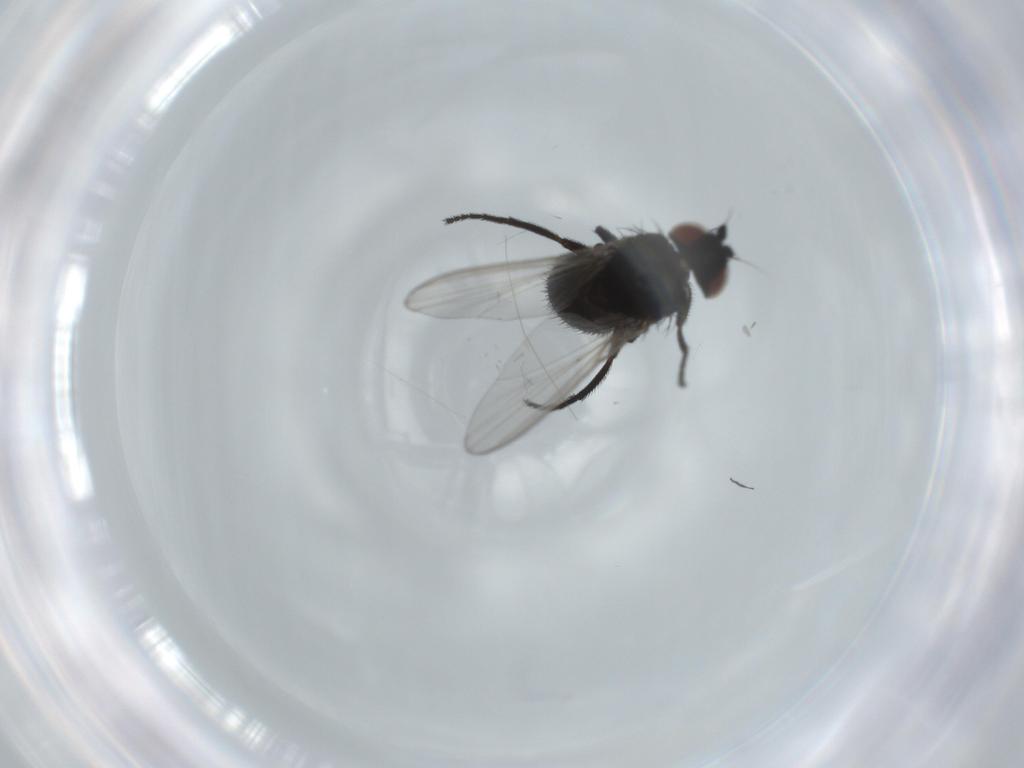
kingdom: Animalia
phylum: Arthropoda
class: Insecta
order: Diptera
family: Milichiidae
